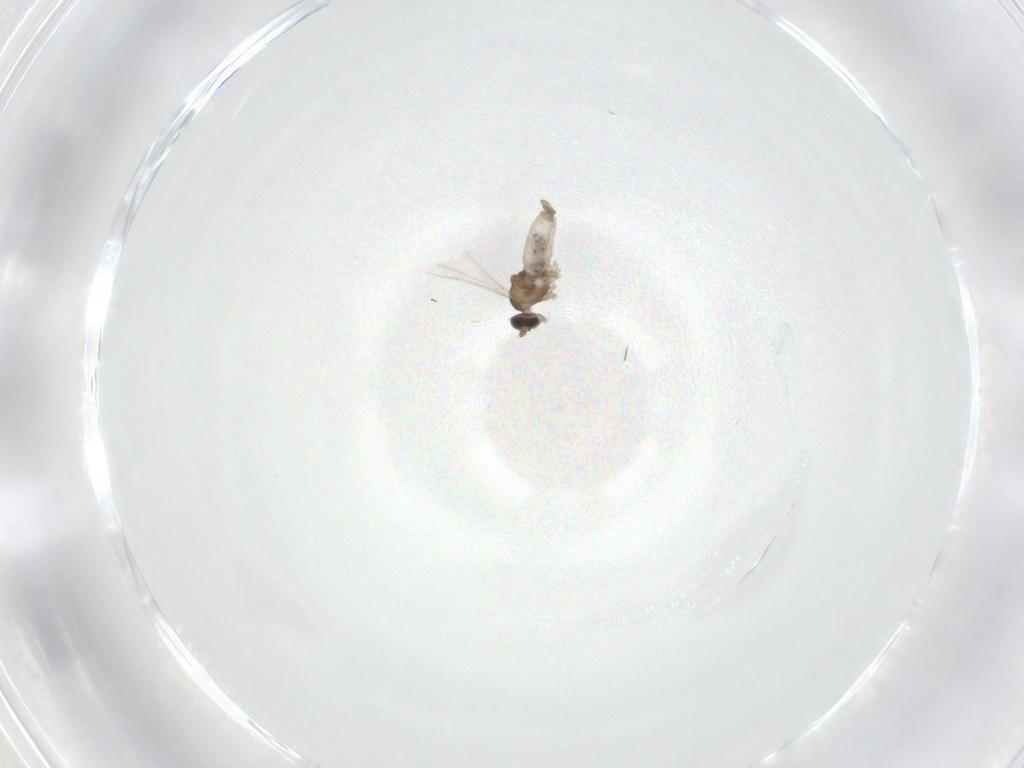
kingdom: Animalia
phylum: Arthropoda
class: Insecta
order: Diptera
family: Cecidomyiidae
